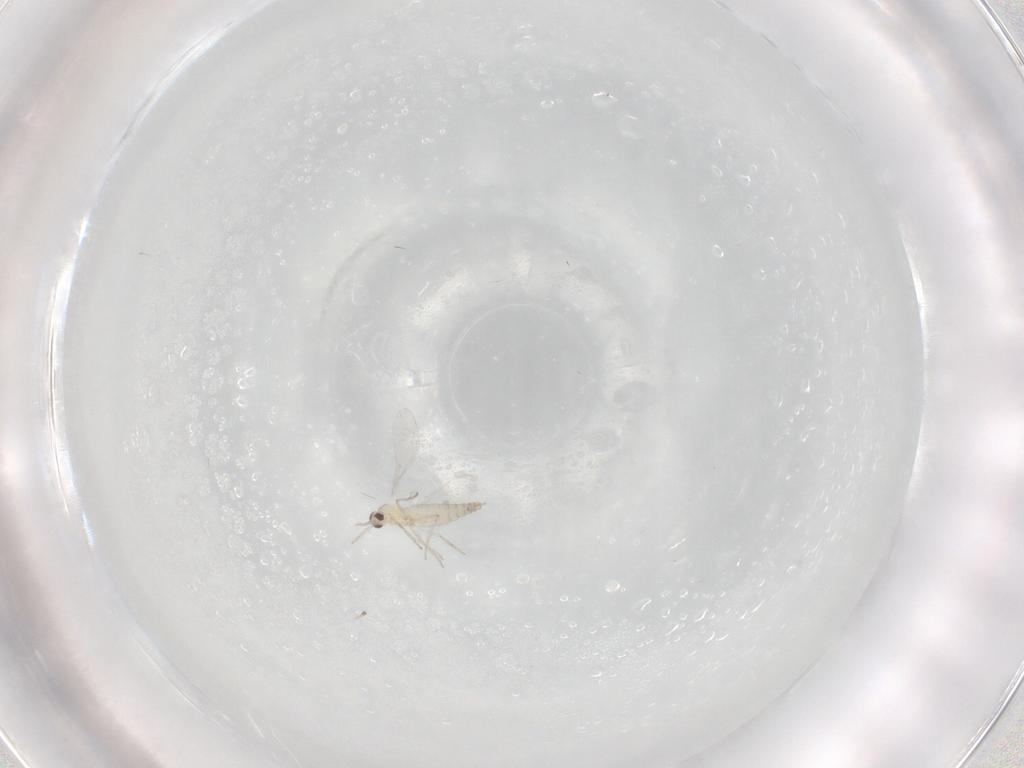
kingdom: Animalia
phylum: Arthropoda
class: Insecta
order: Diptera
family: Cecidomyiidae
